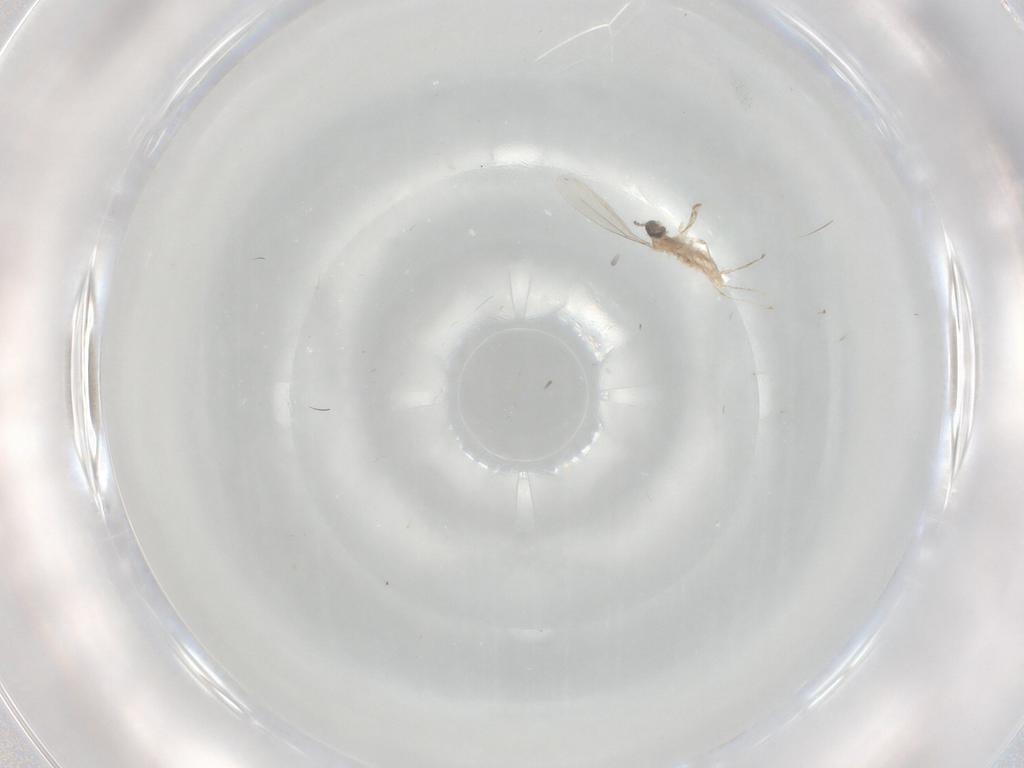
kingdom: Animalia
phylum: Arthropoda
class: Insecta
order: Diptera
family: Cecidomyiidae
